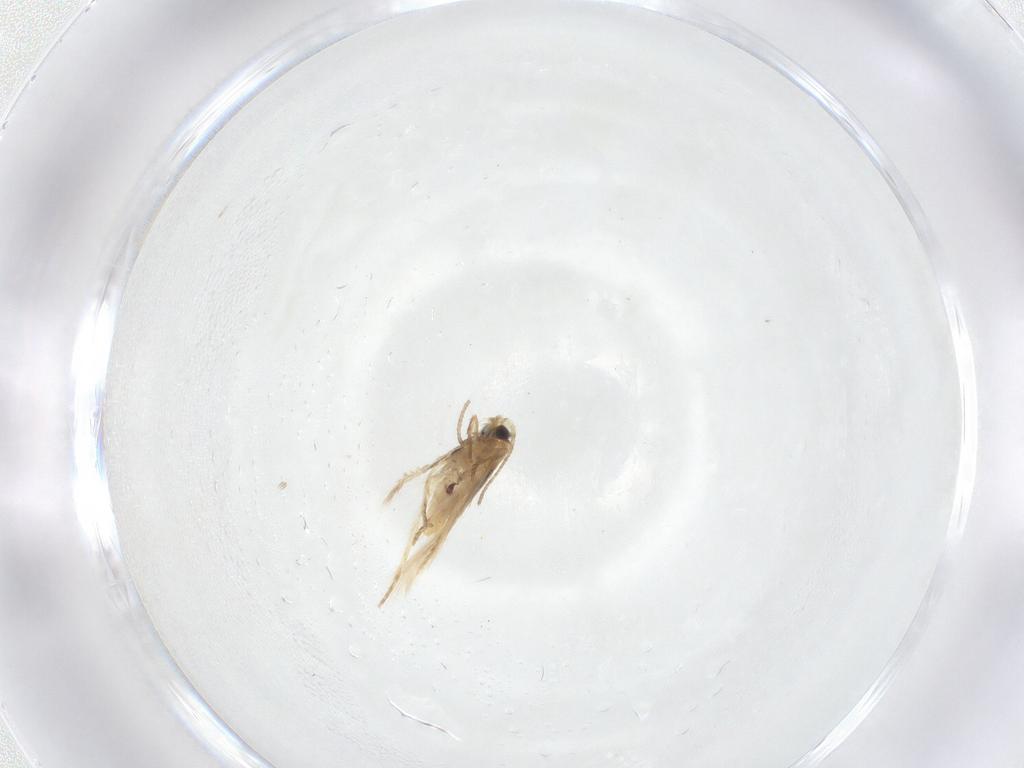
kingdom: Animalia
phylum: Arthropoda
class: Insecta
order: Lepidoptera
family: Nepticulidae
